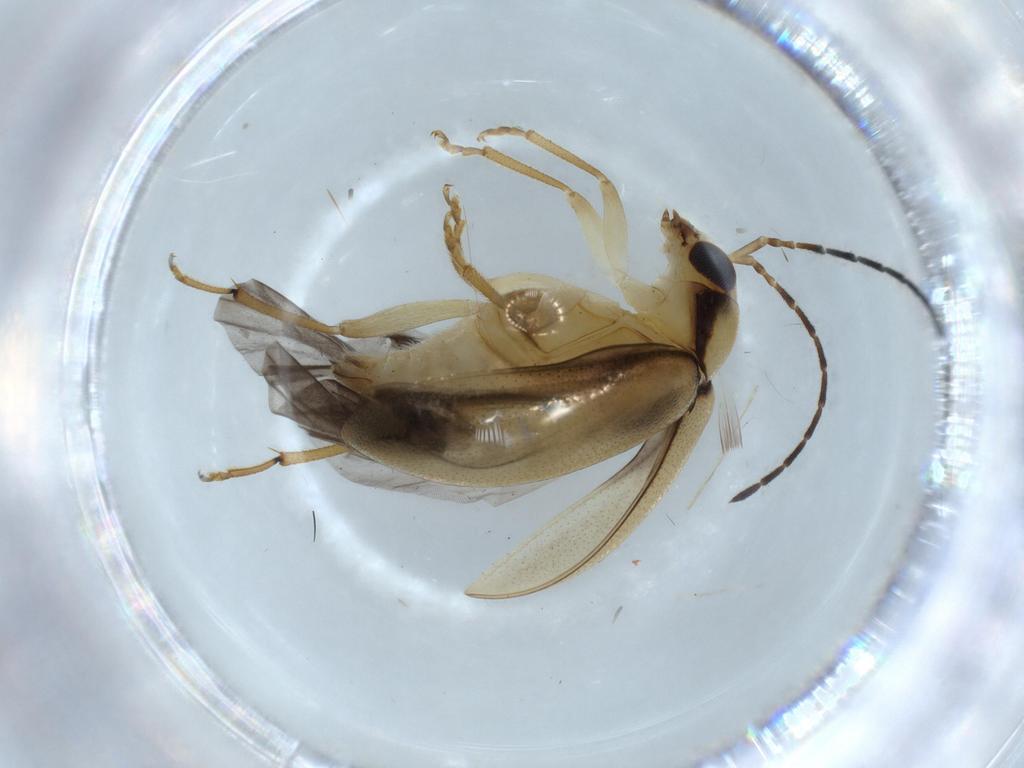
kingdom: Animalia
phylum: Arthropoda
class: Insecta
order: Coleoptera
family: Chrysomelidae
